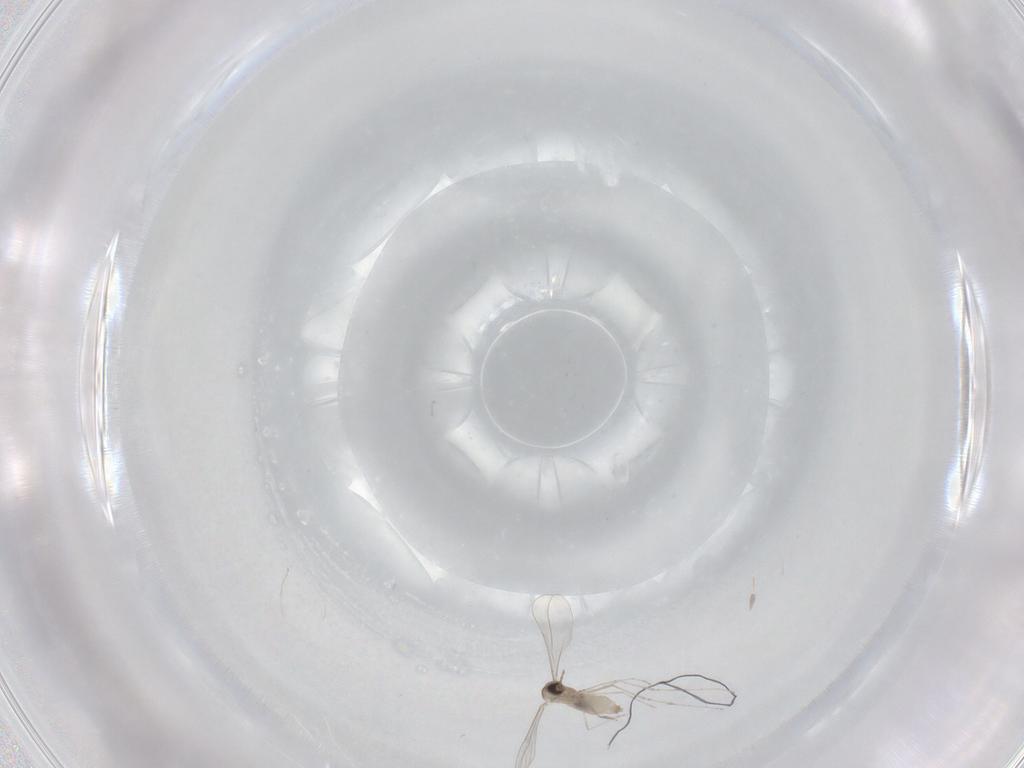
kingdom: Animalia
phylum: Arthropoda
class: Insecta
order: Diptera
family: Cecidomyiidae
